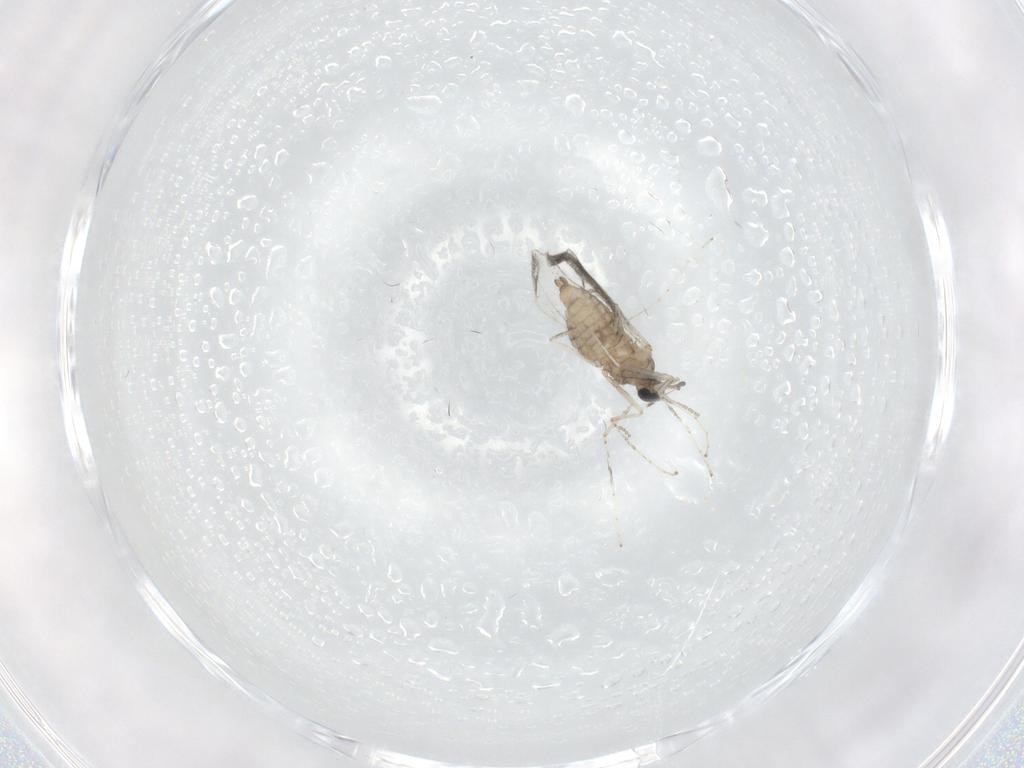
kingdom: Animalia
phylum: Arthropoda
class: Insecta
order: Diptera
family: Cecidomyiidae
